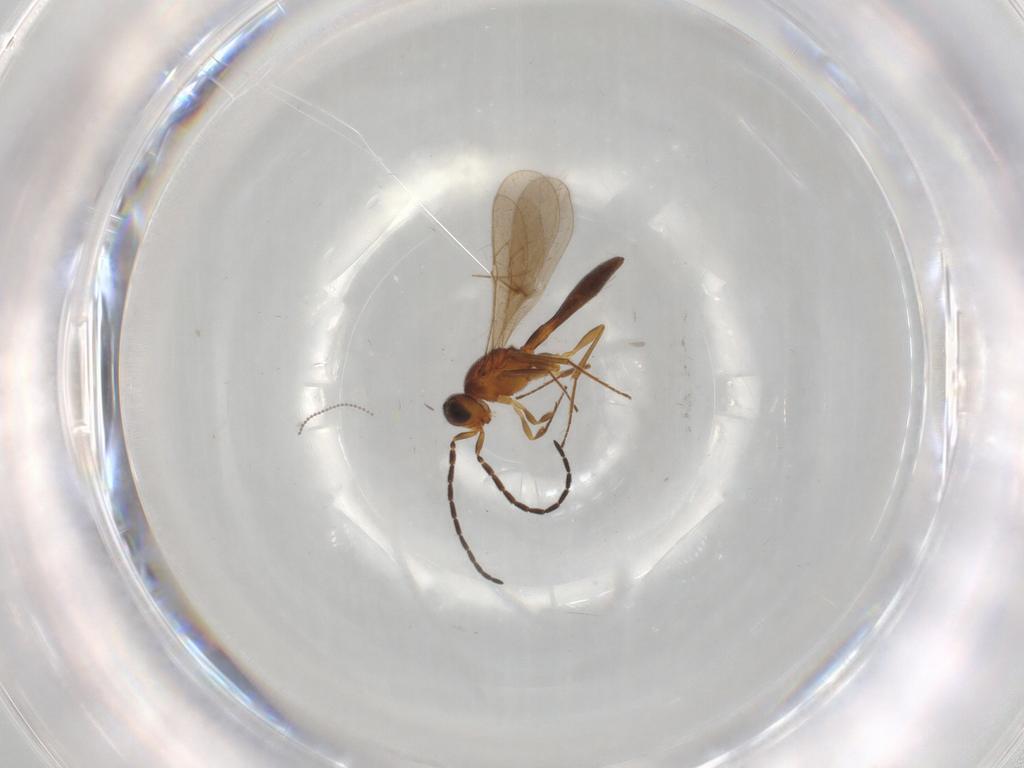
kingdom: Animalia
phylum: Arthropoda
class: Insecta
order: Hymenoptera
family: Scelionidae
